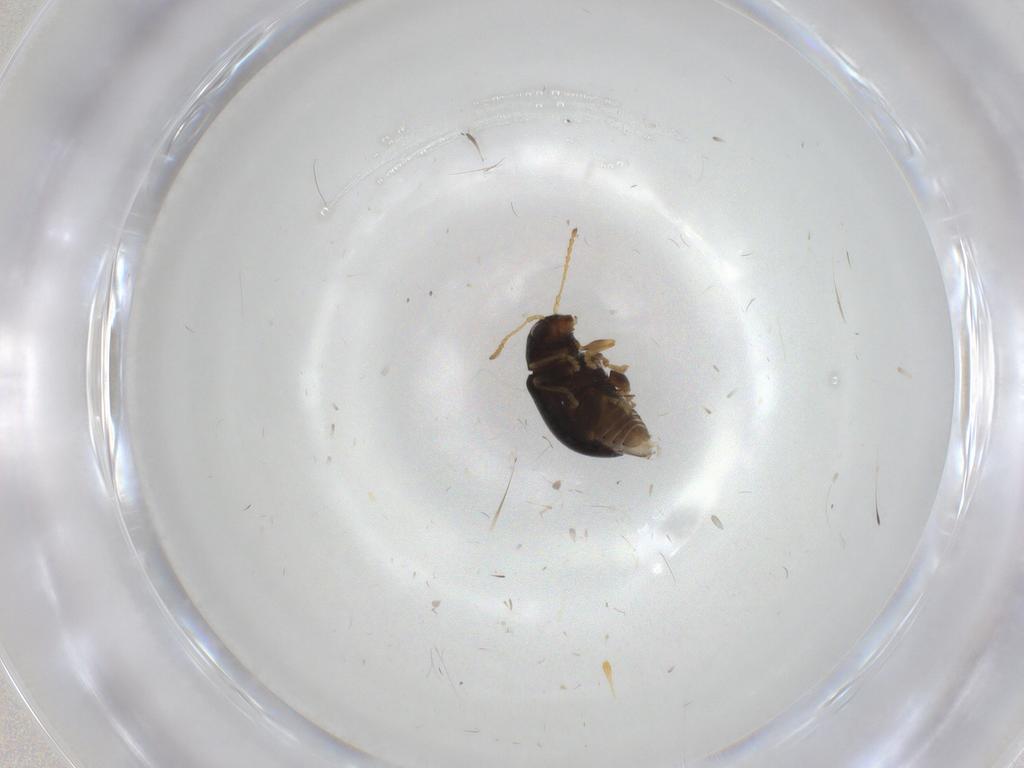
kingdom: Animalia
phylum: Arthropoda
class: Insecta
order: Coleoptera
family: Chrysomelidae
